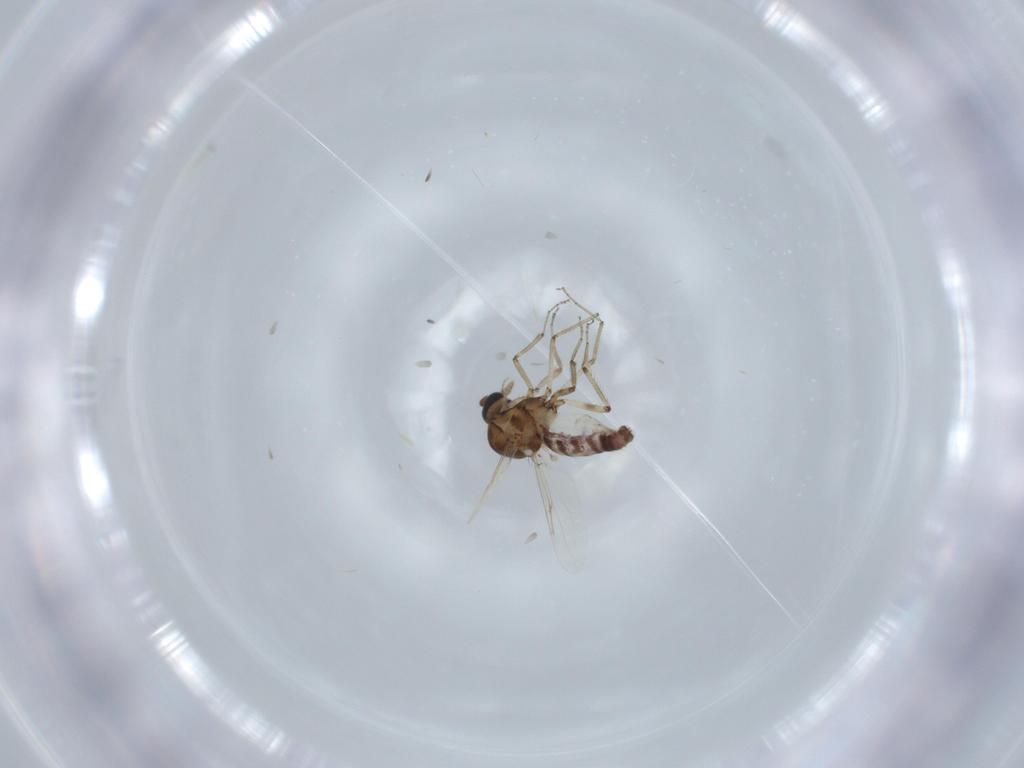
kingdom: Animalia
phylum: Arthropoda
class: Insecta
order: Diptera
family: Ceratopogonidae
